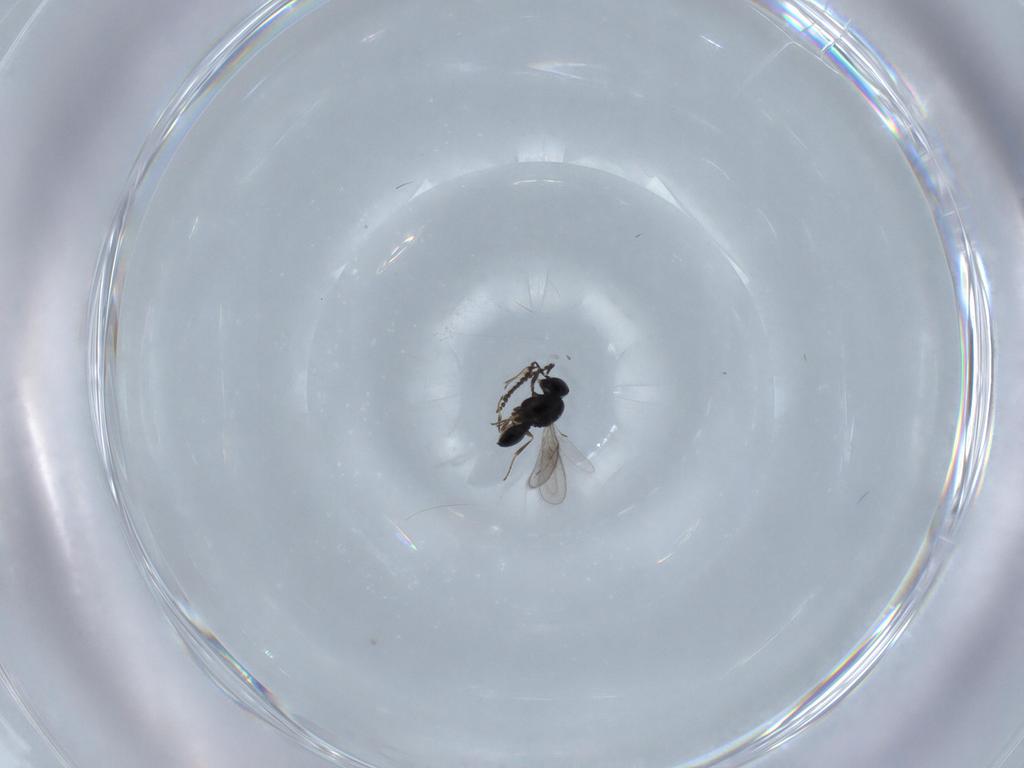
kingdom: Animalia
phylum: Arthropoda
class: Insecta
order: Hymenoptera
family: Scelionidae
